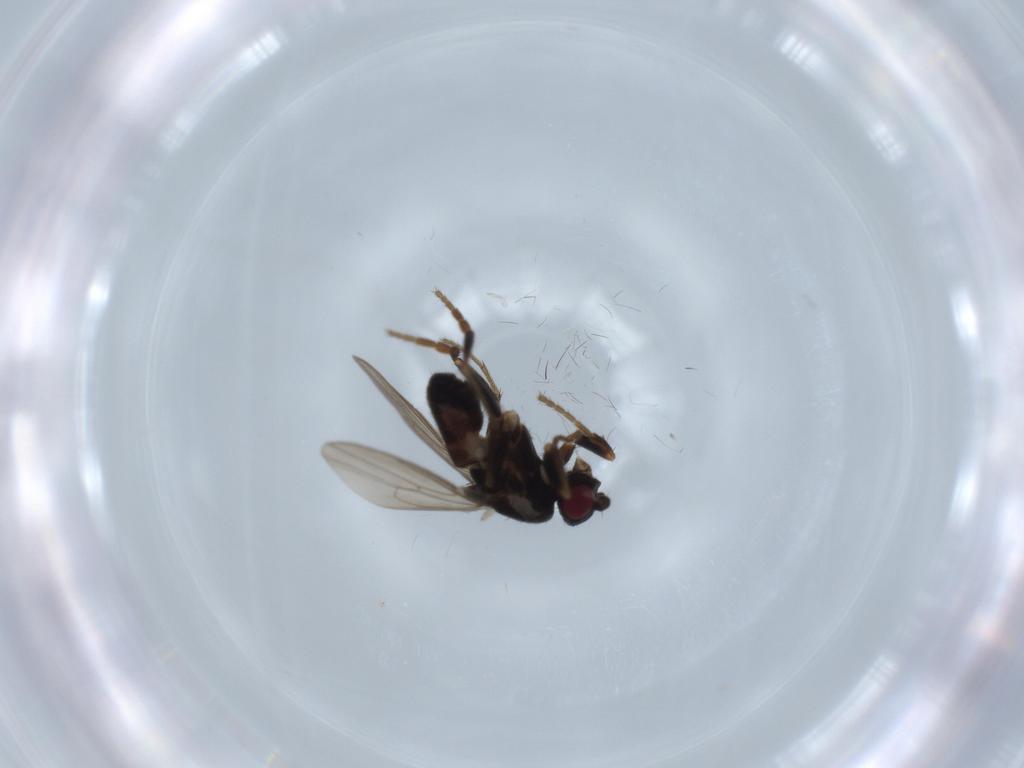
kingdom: Animalia
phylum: Arthropoda
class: Insecta
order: Diptera
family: Sphaeroceridae
